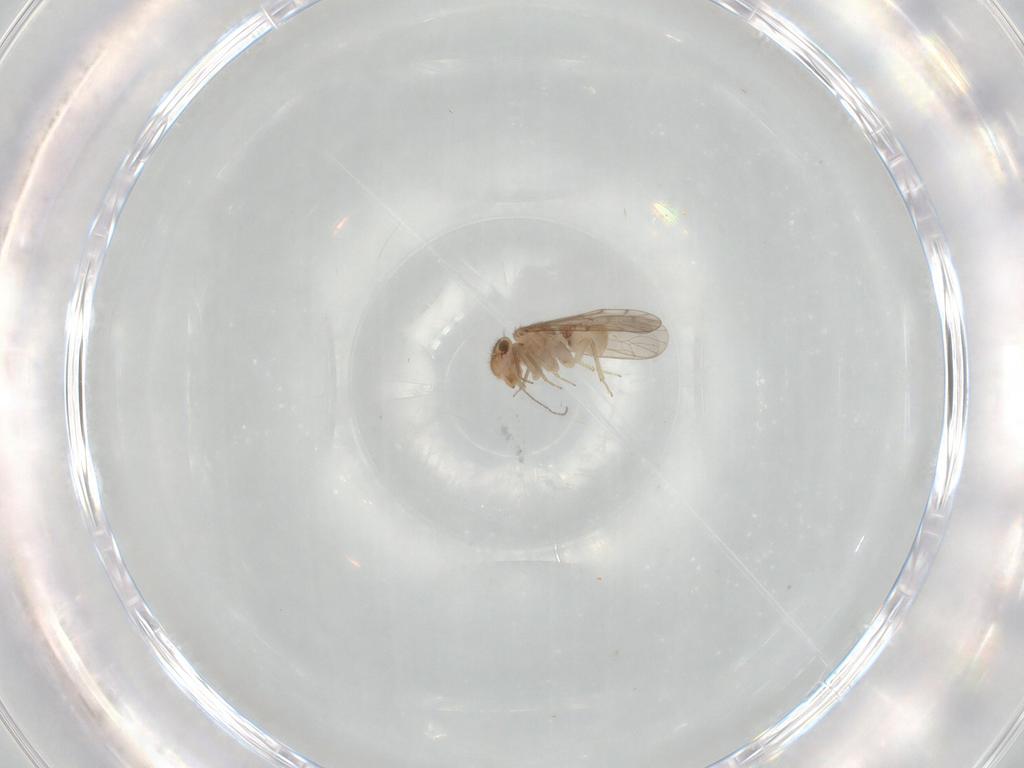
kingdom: Animalia
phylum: Arthropoda
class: Insecta
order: Psocodea
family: Ectopsocidae
